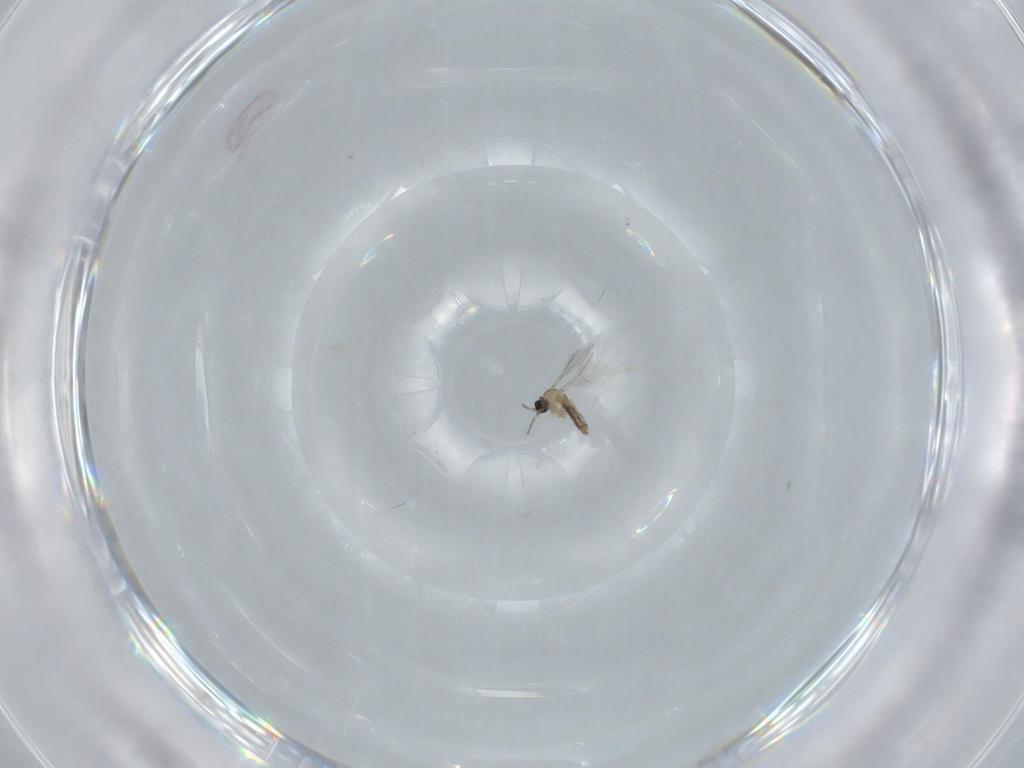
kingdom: Animalia
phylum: Arthropoda
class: Insecta
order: Diptera
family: Cecidomyiidae
